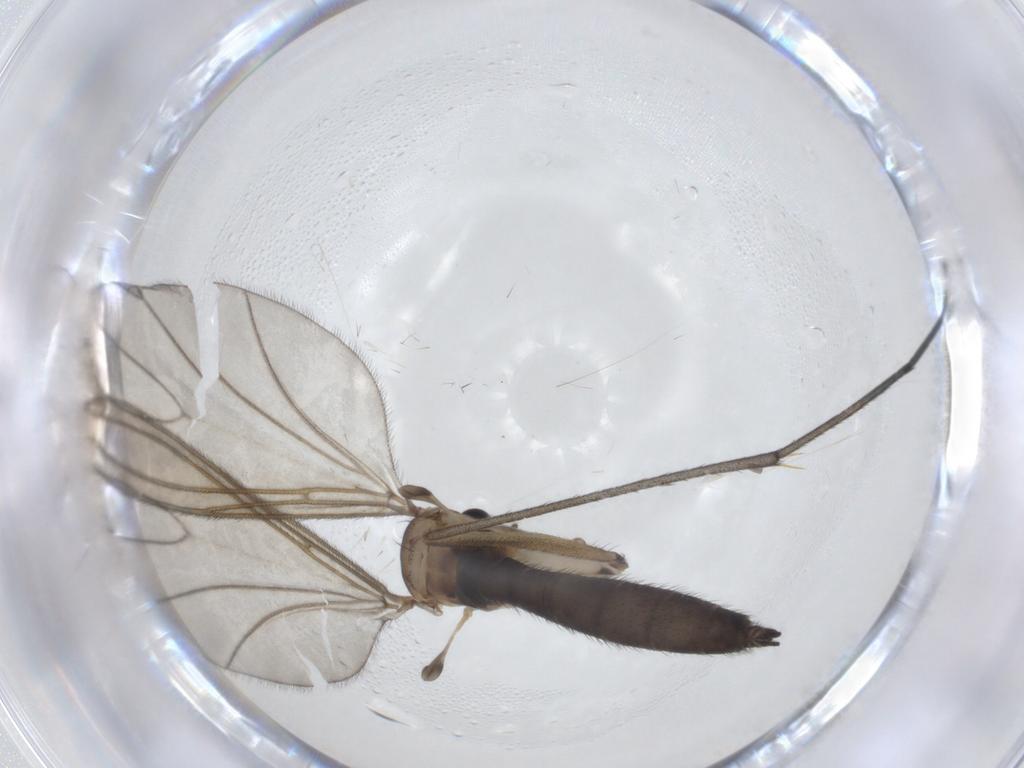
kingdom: Animalia
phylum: Arthropoda
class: Insecta
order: Diptera
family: Sciaridae
